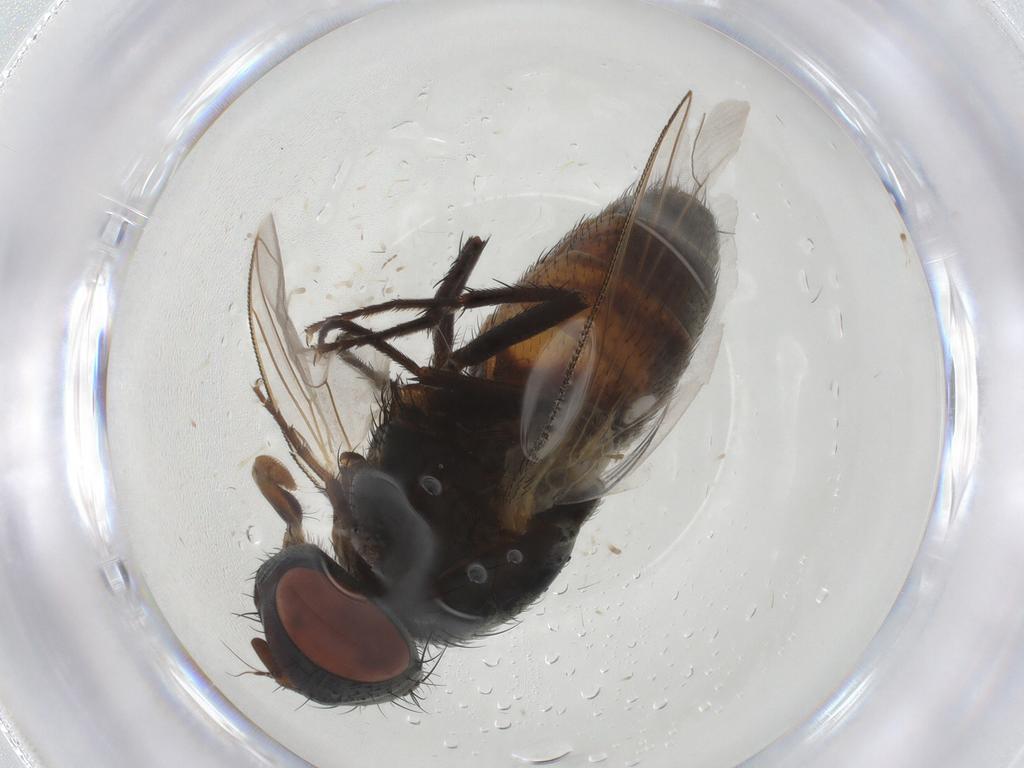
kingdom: Animalia
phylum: Arthropoda
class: Insecta
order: Diptera
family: Sarcophagidae
